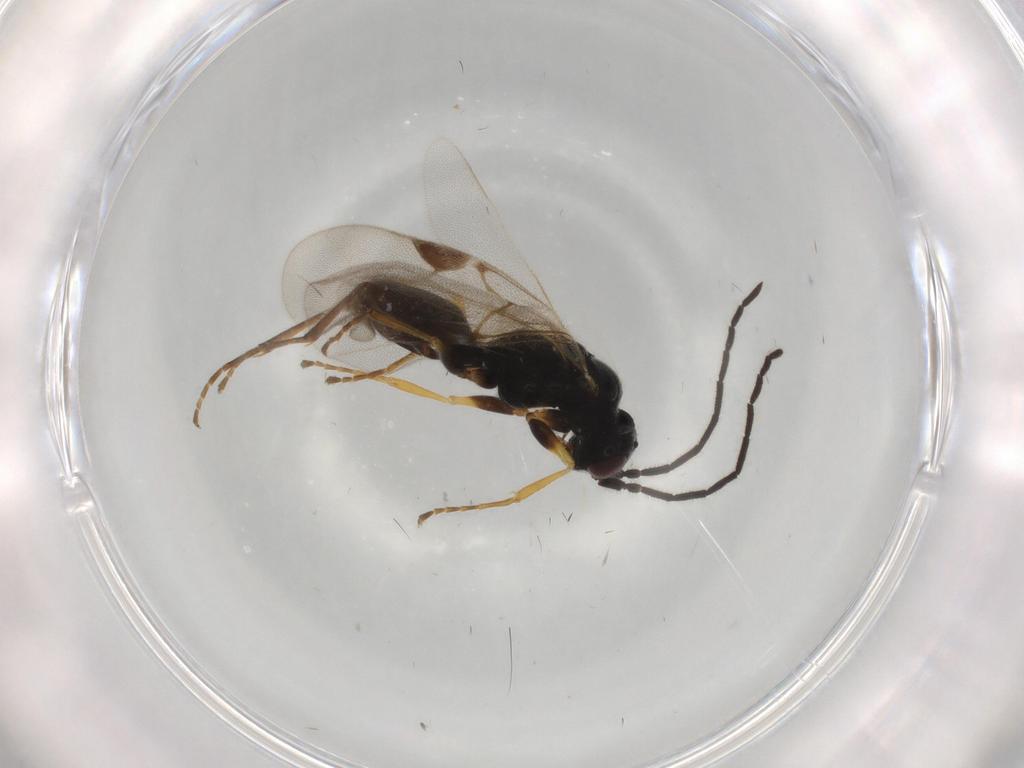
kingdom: Animalia
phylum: Arthropoda
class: Insecta
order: Hymenoptera
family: Dryinidae
